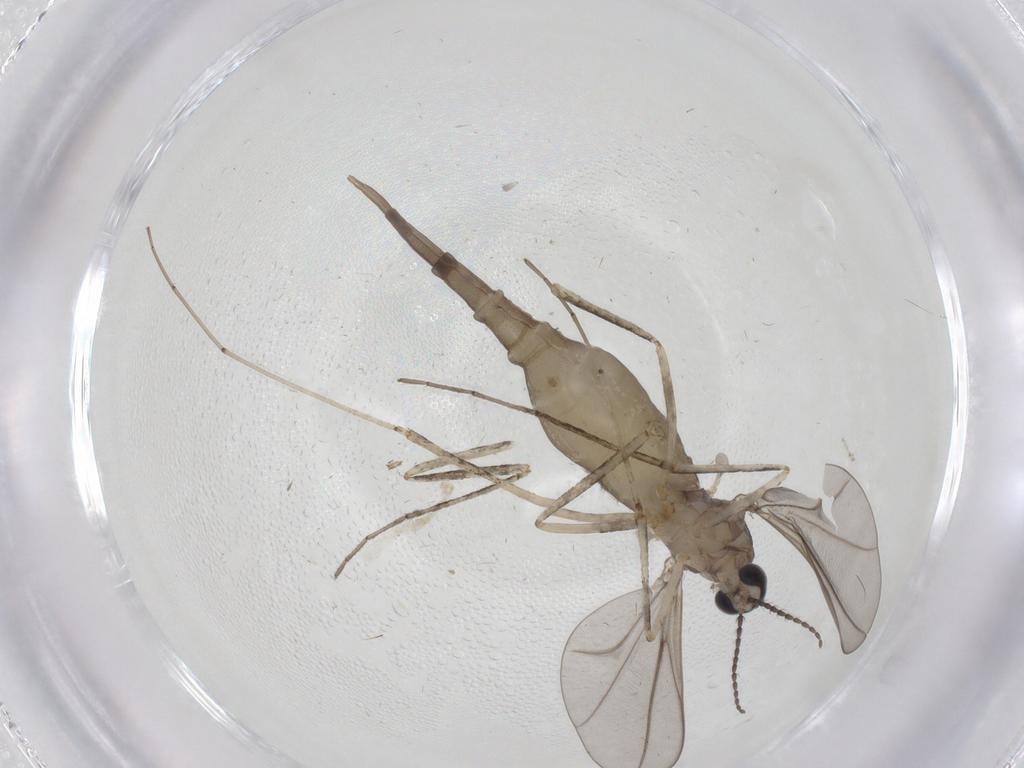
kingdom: Animalia
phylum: Arthropoda
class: Insecta
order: Diptera
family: Cecidomyiidae
